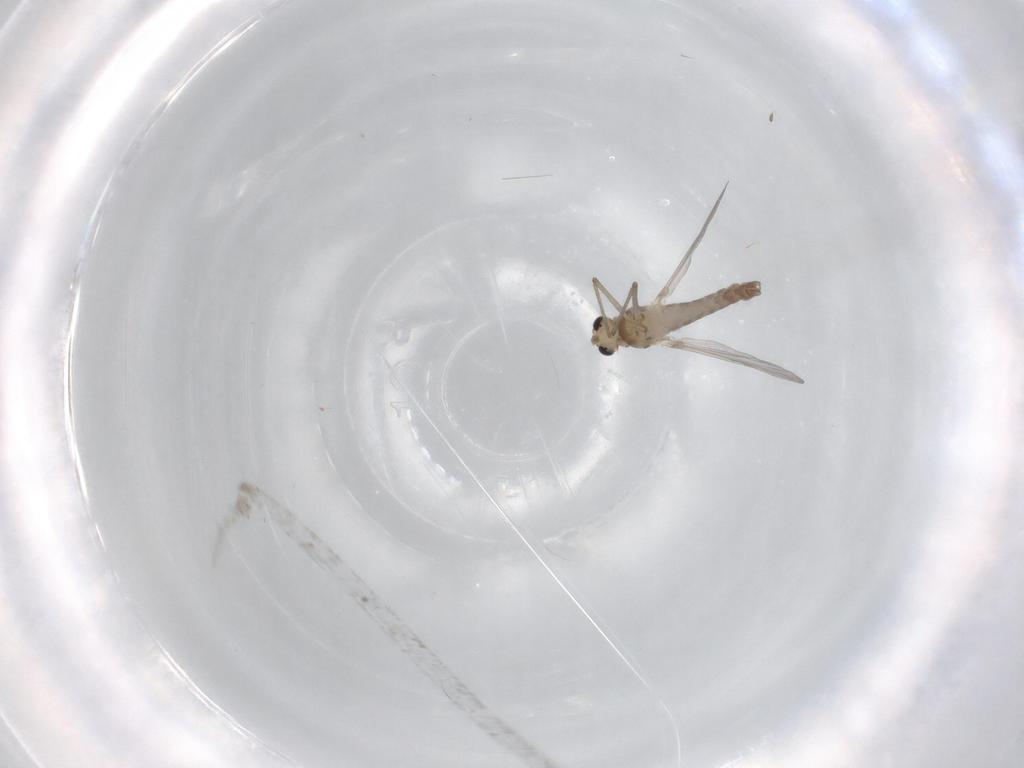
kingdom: Animalia
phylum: Arthropoda
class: Insecta
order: Diptera
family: Chironomidae
